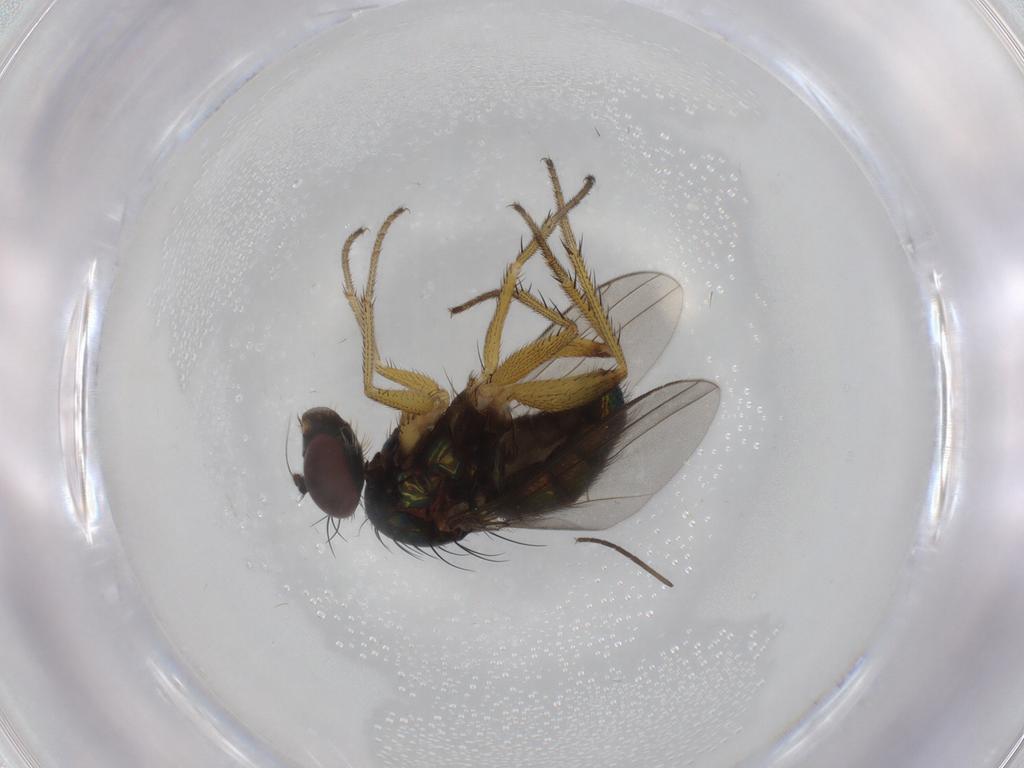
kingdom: Animalia
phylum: Arthropoda
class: Insecta
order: Diptera
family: Dolichopodidae
